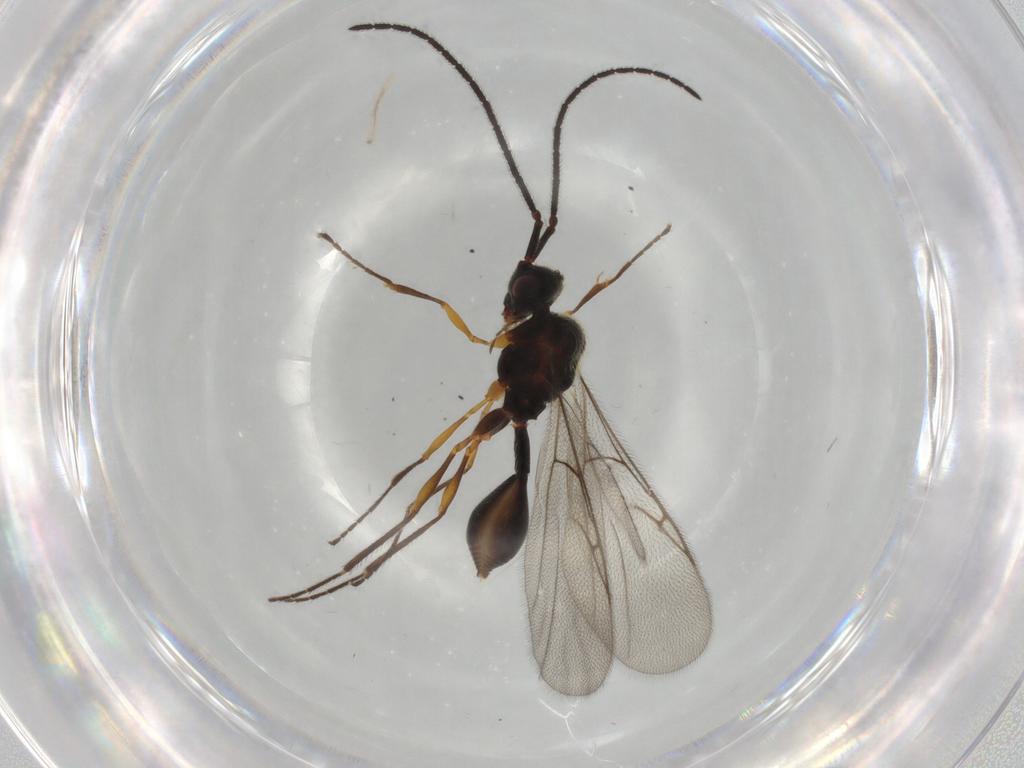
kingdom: Animalia
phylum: Arthropoda
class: Insecta
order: Hymenoptera
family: Diapriidae
